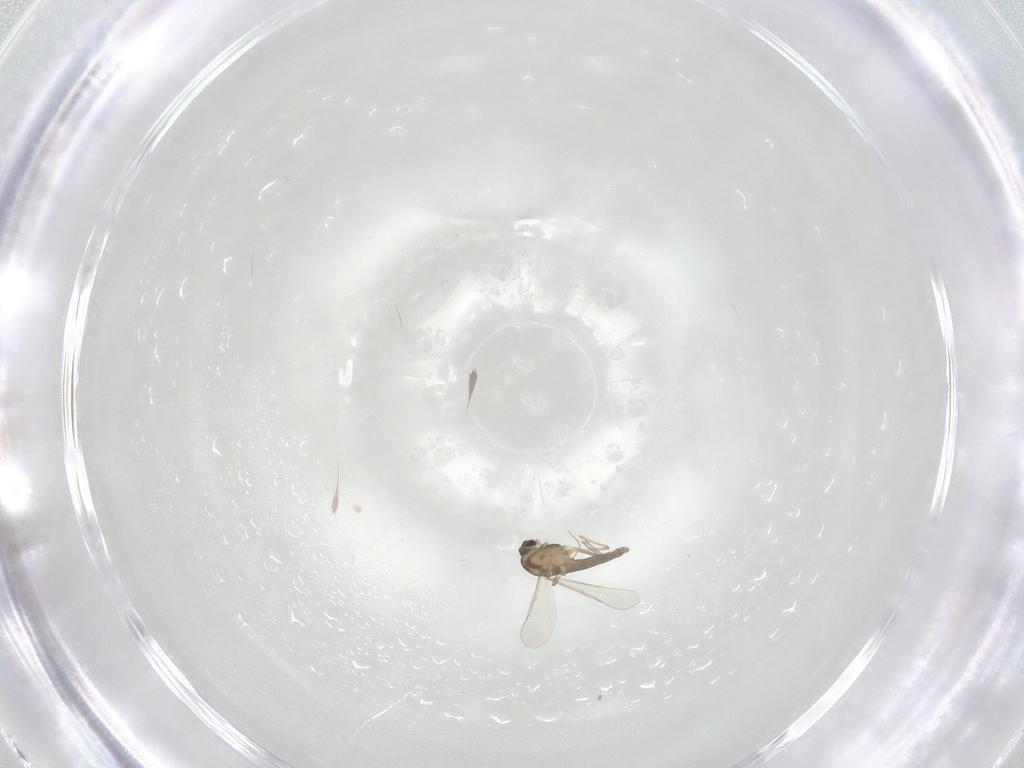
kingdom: Animalia
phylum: Arthropoda
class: Insecta
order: Diptera
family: Chironomidae
